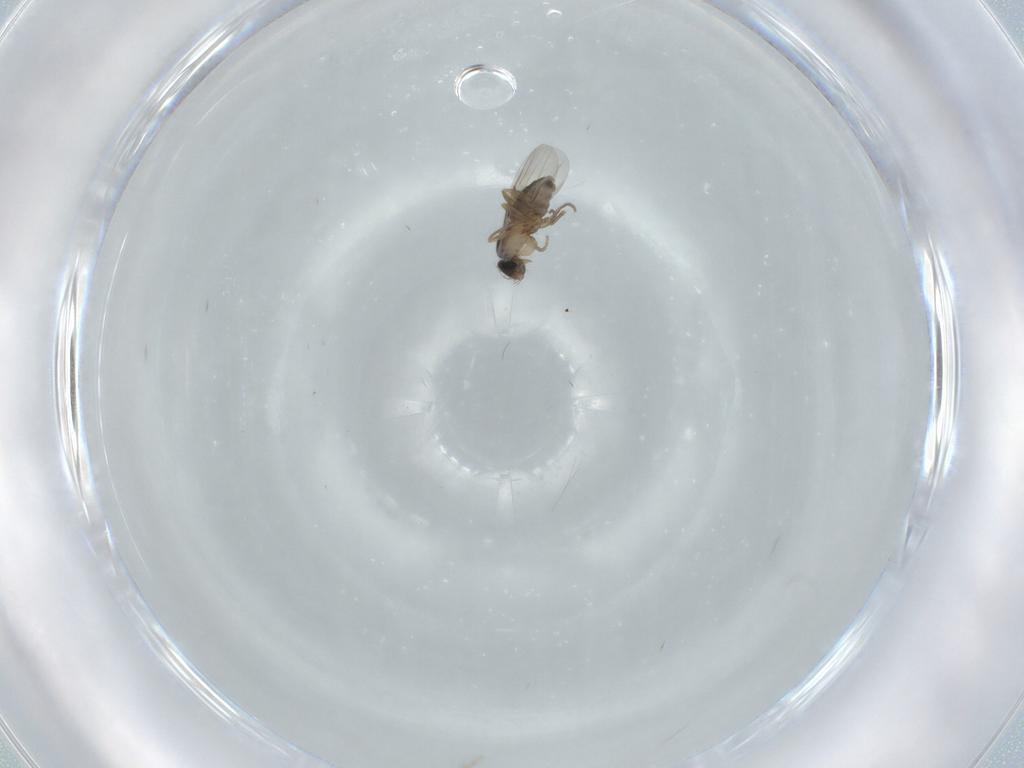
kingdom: Animalia
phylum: Arthropoda
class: Insecta
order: Diptera
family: Phoridae
